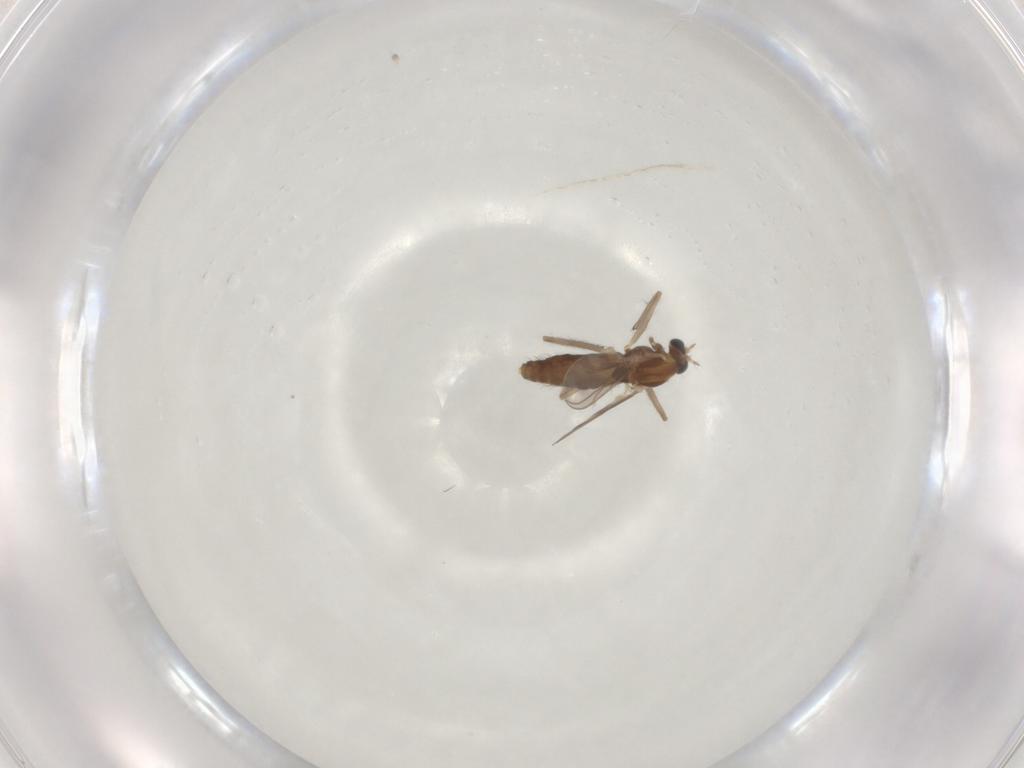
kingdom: Animalia
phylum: Arthropoda
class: Insecta
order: Diptera
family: Chironomidae
